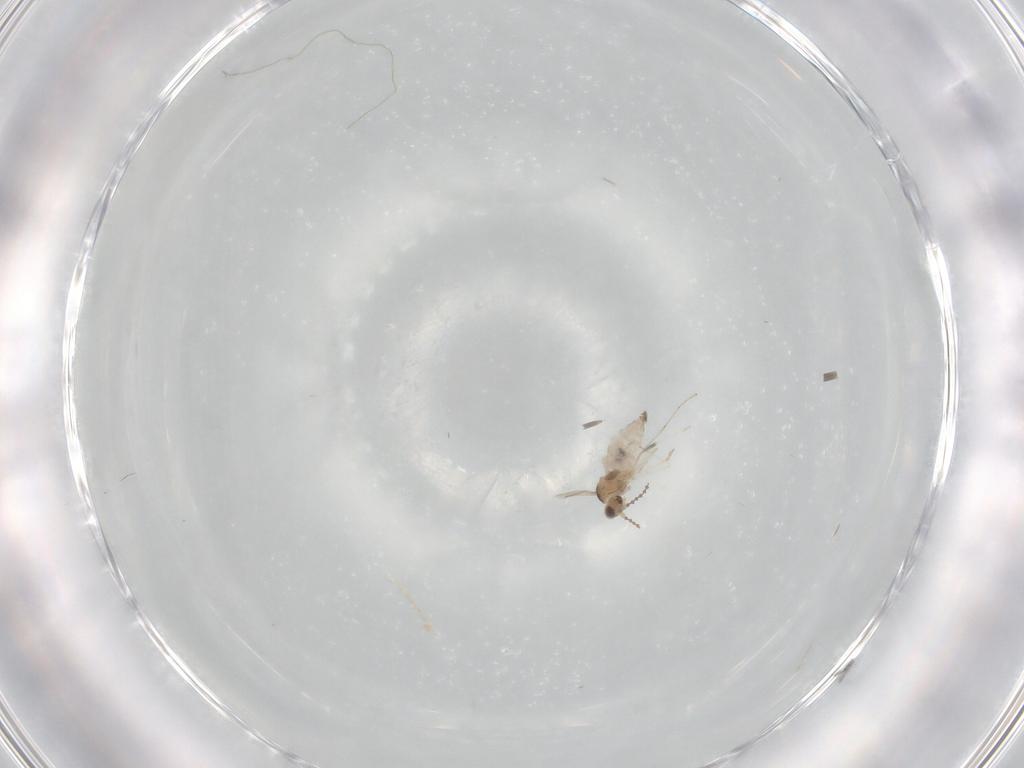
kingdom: Animalia
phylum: Arthropoda
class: Insecta
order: Diptera
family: Cecidomyiidae
